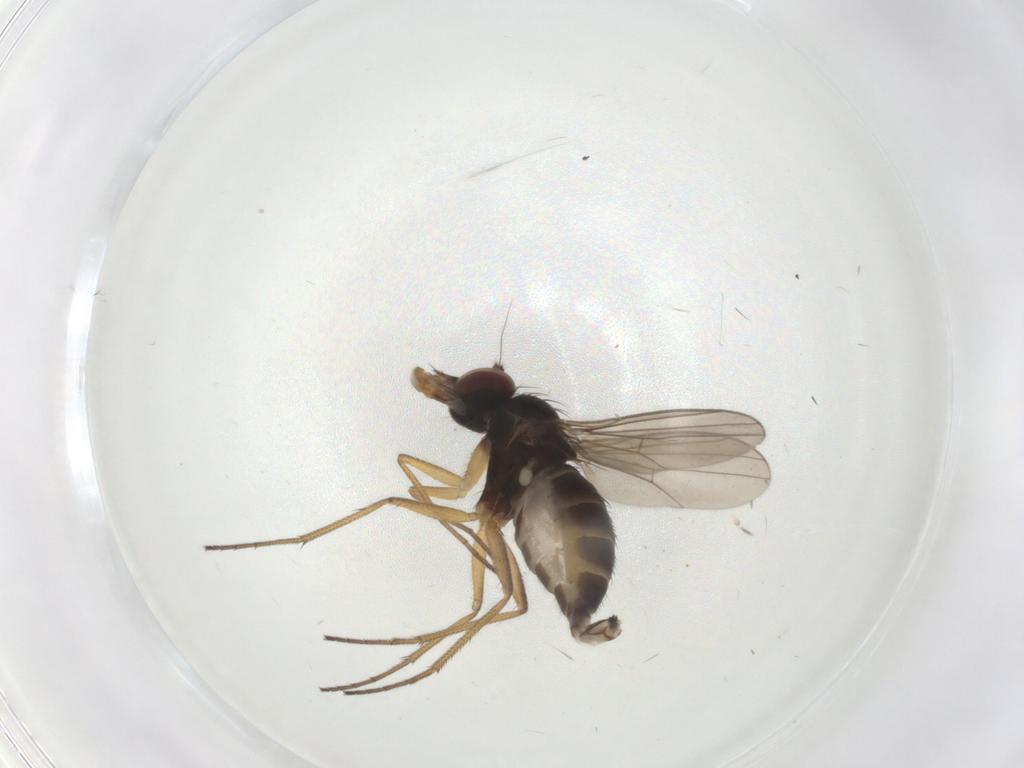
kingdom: Animalia
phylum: Arthropoda
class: Insecta
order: Diptera
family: Dolichopodidae
